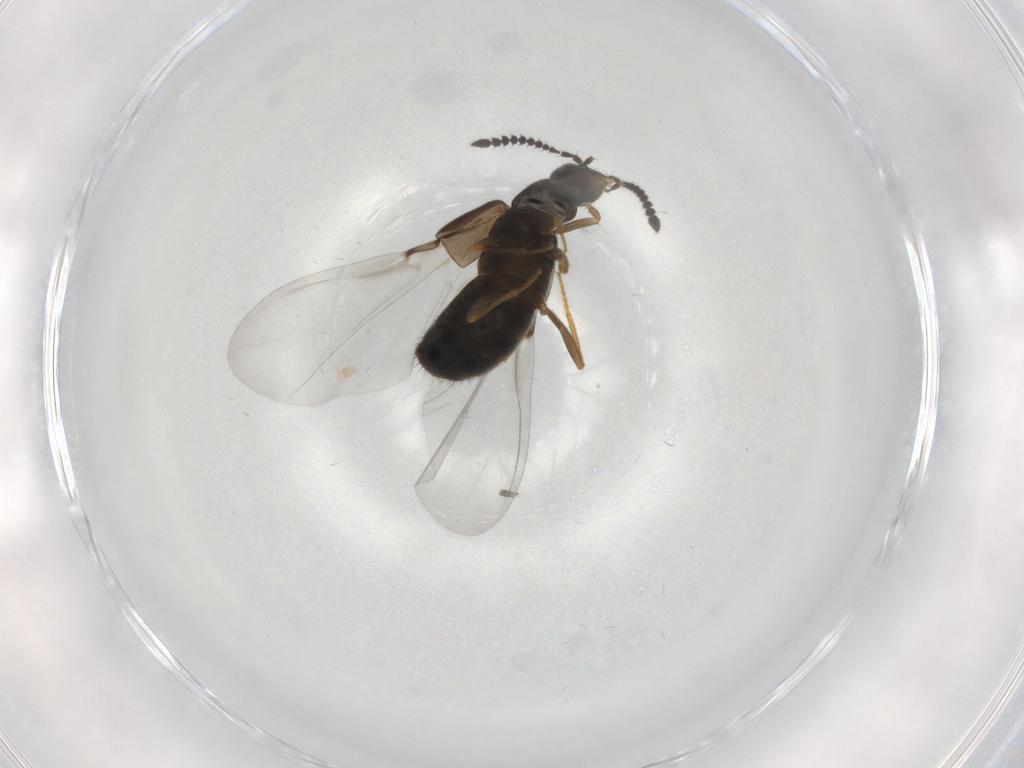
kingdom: Animalia
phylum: Arthropoda
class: Insecta
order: Coleoptera
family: Staphylinidae
